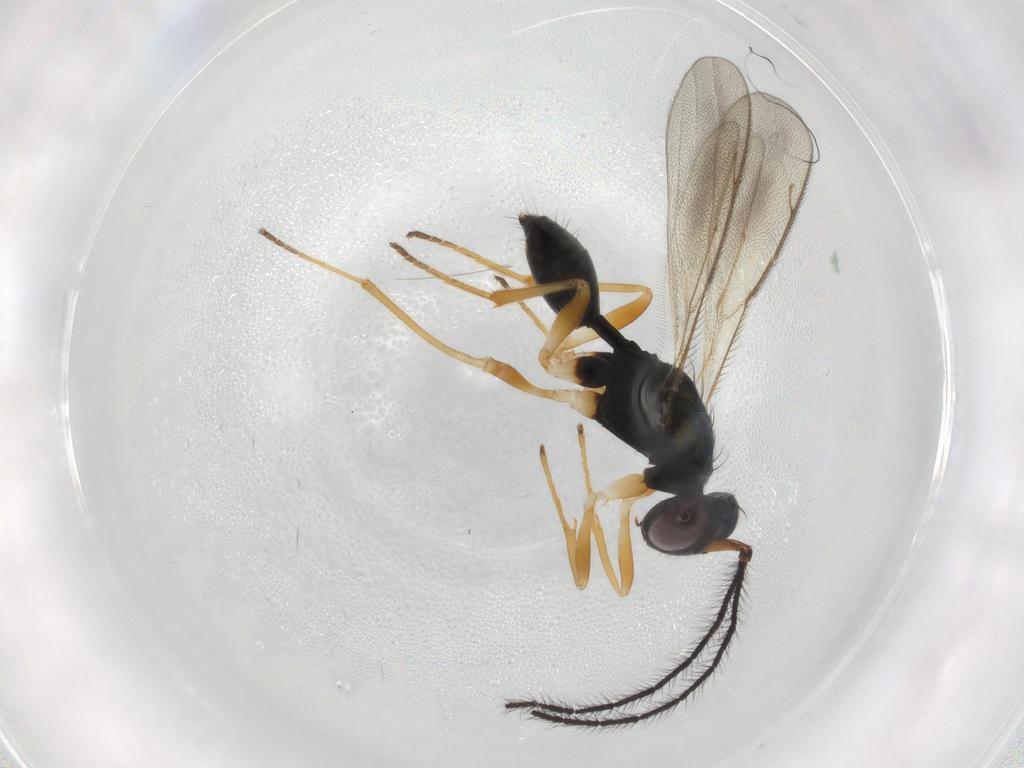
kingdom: Animalia
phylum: Arthropoda
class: Insecta
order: Hymenoptera
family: Diparidae
